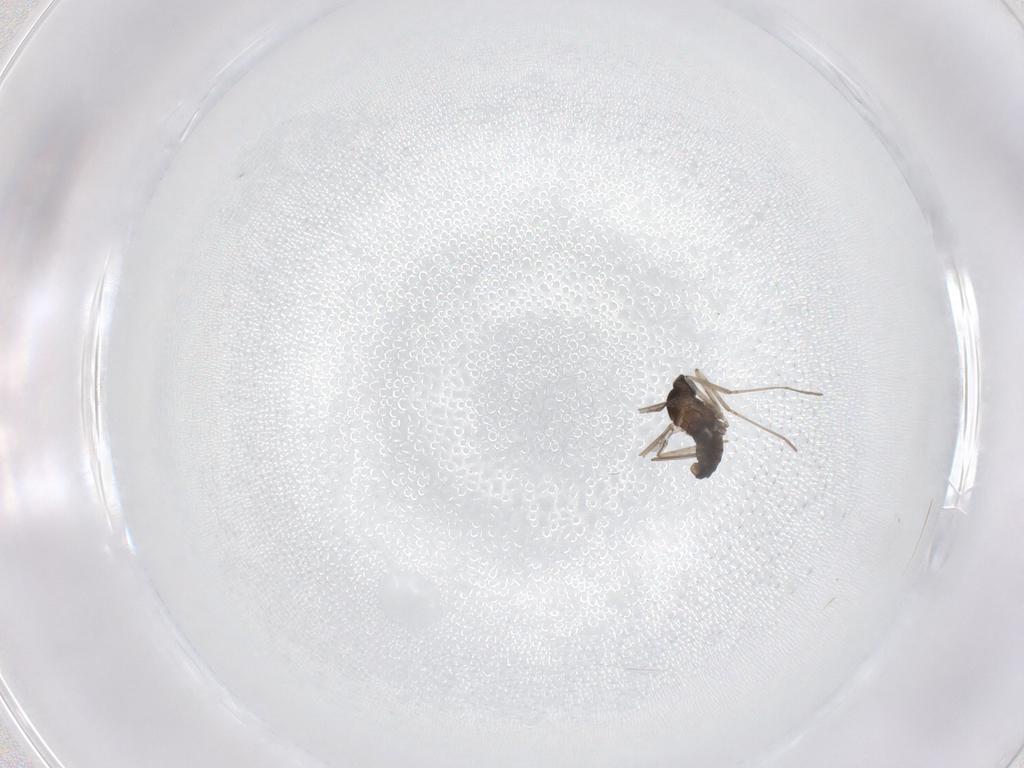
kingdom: Animalia
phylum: Arthropoda
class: Insecta
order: Diptera
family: Cecidomyiidae
